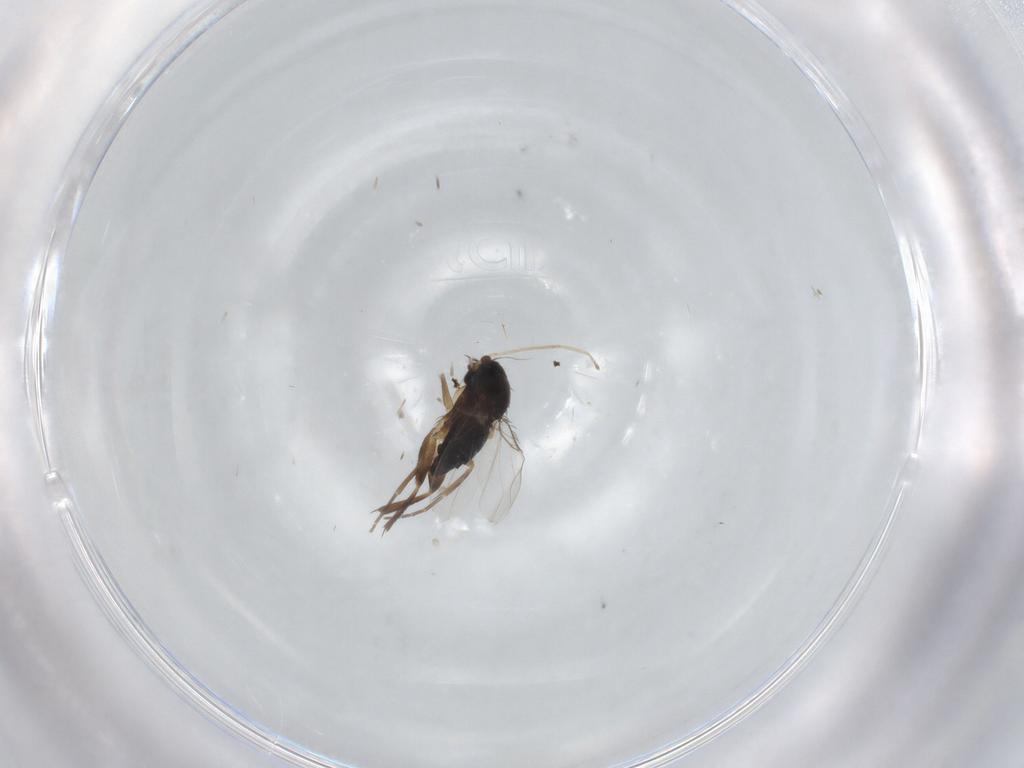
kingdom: Animalia
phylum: Arthropoda
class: Insecta
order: Diptera
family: Phoridae
